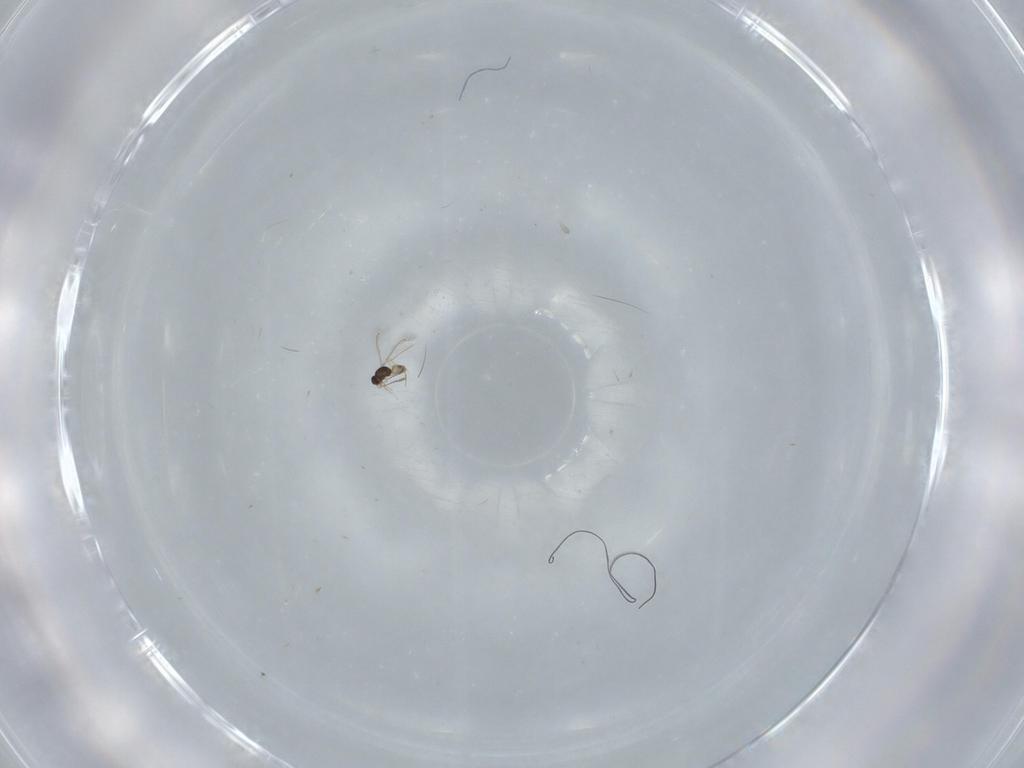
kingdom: Animalia
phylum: Arthropoda
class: Insecta
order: Hymenoptera
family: Formicidae
